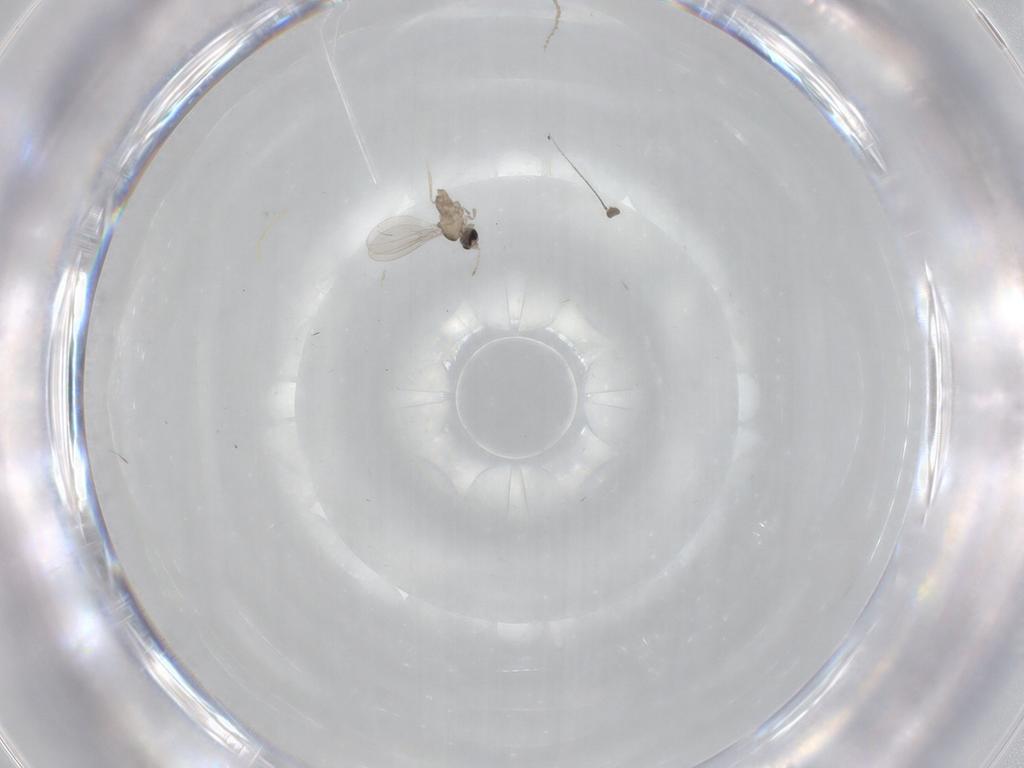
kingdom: Animalia
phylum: Arthropoda
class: Insecta
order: Diptera
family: Cecidomyiidae
